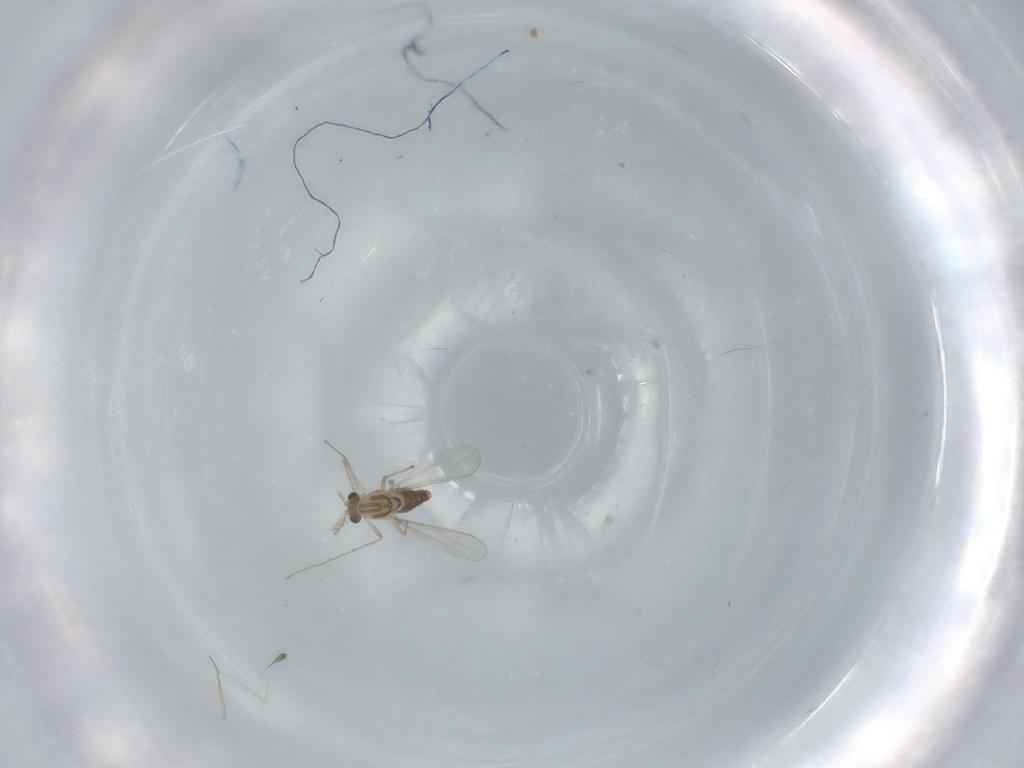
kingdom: Animalia
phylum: Arthropoda
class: Insecta
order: Diptera
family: Chironomidae
